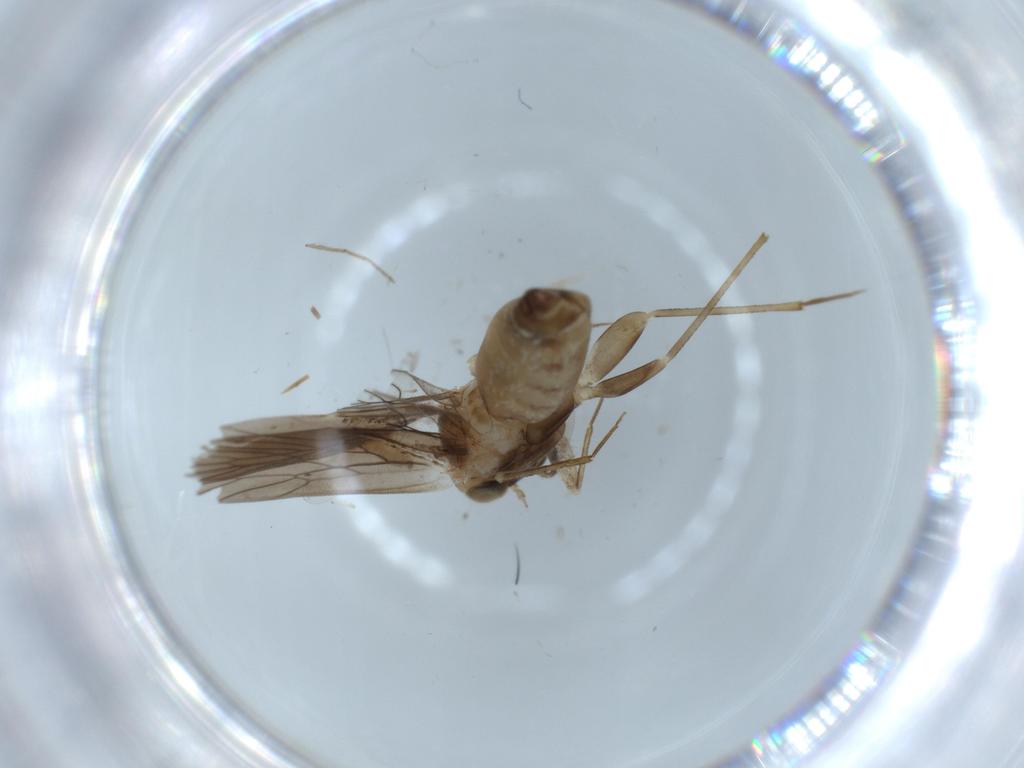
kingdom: Animalia
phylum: Arthropoda
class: Insecta
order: Psocodea
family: Lepidopsocidae
